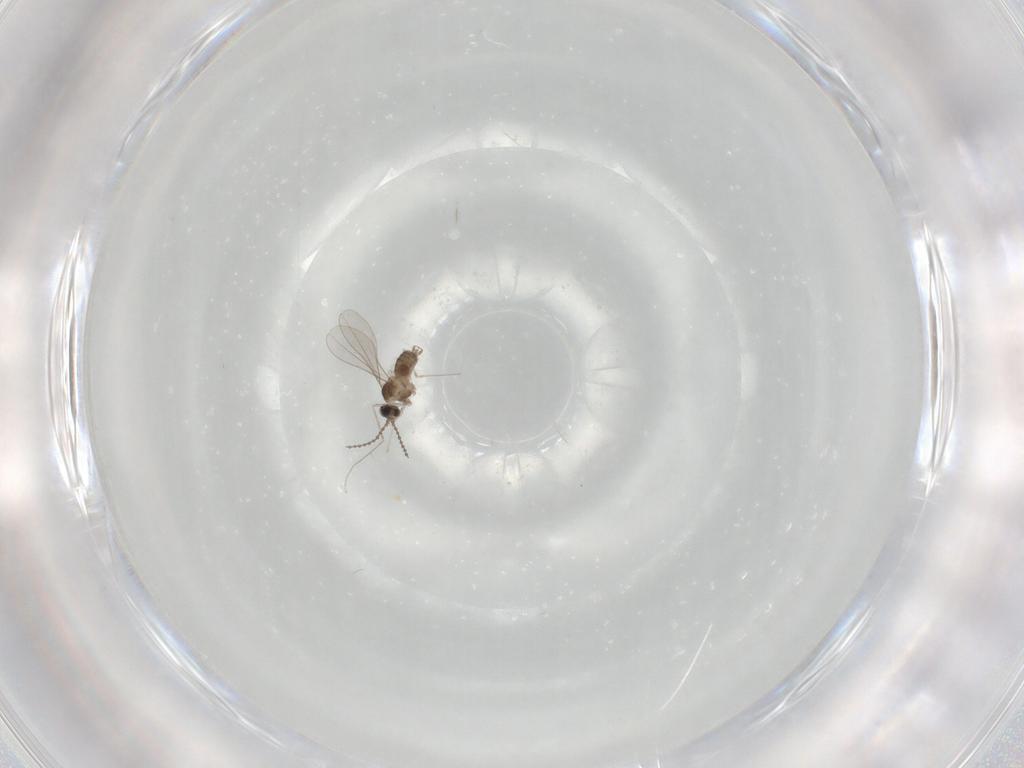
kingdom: Animalia
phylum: Arthropoda
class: Insecta
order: Diptera
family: Cecidomyiidae
